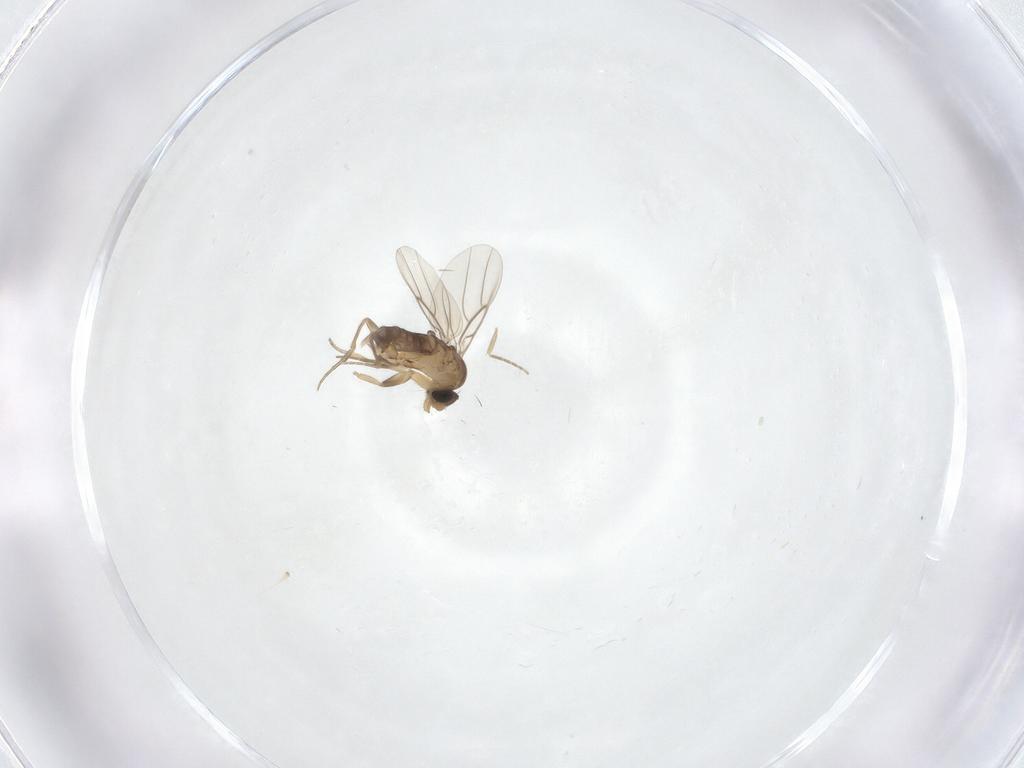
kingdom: Animalia
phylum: Arthropoda
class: Insecta
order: Diptera
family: Phoridae
